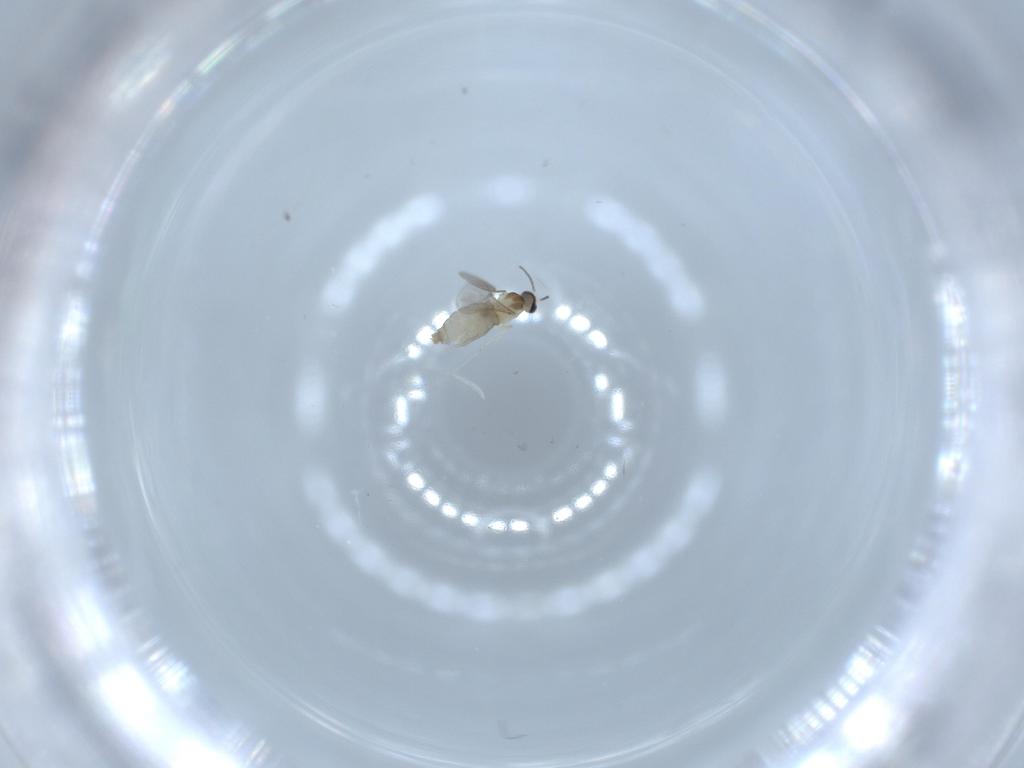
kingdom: Animalia
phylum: Arthropoda
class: Insecta
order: Diptera
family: Cecidomyiidae
